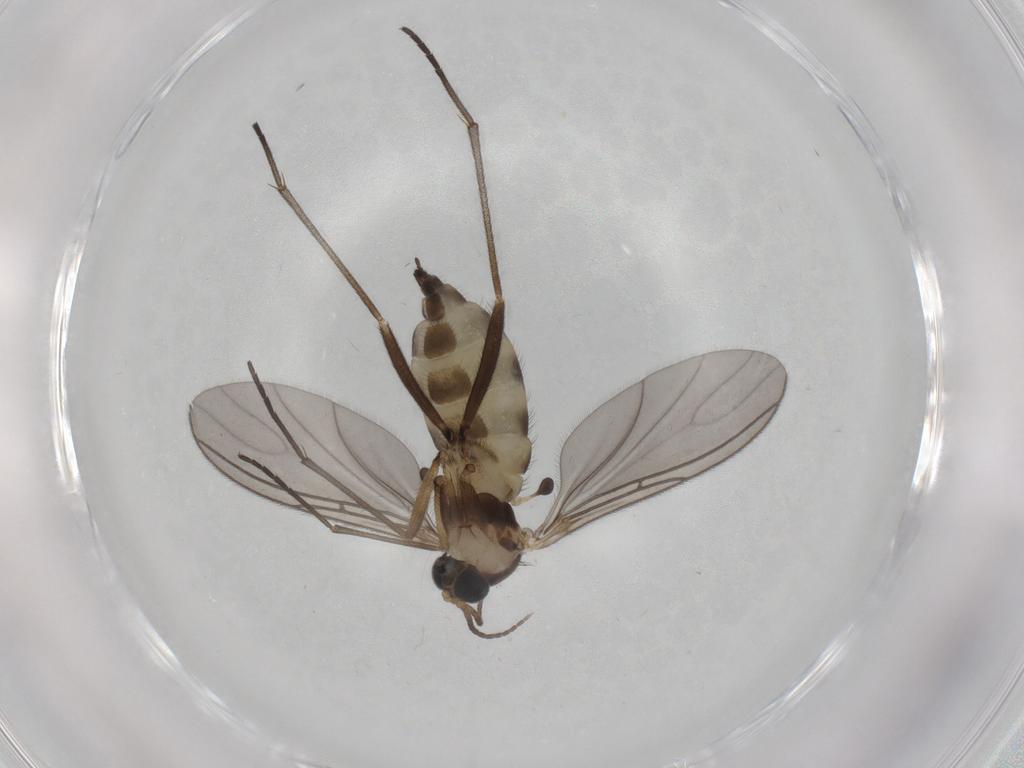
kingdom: Animalia
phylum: Arthropoda
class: Insecta
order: Diptera
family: Sciaridae
